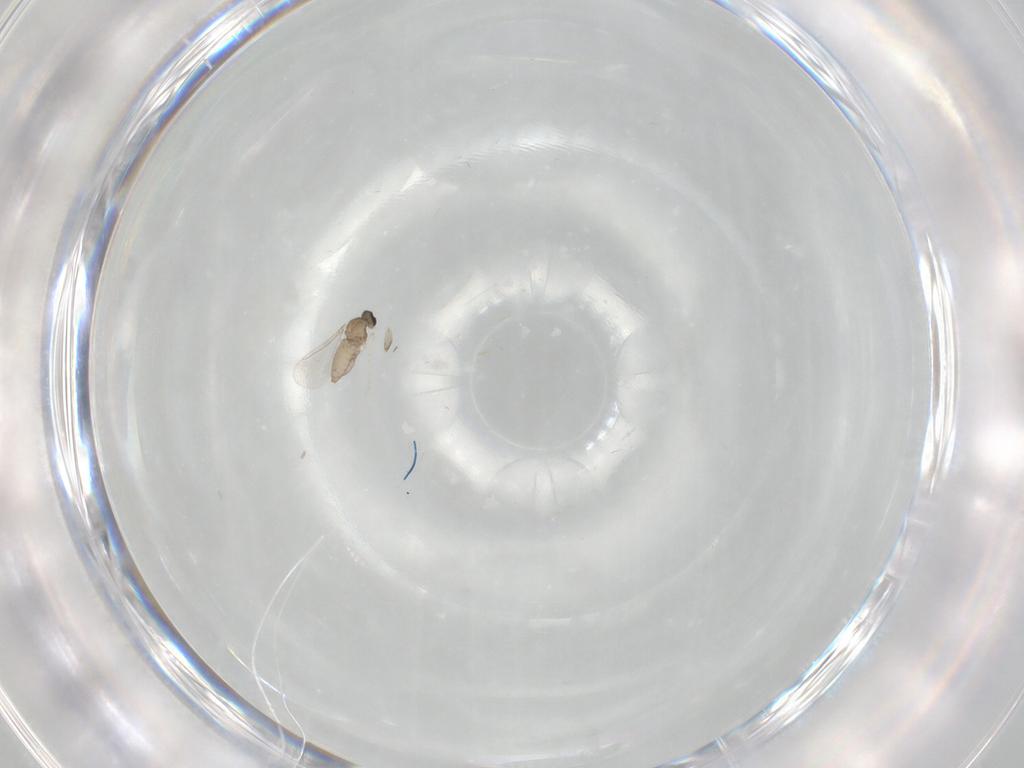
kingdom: Animalia
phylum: Arthropoda
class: Insecta
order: Diptera
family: Cecidomyiidae
